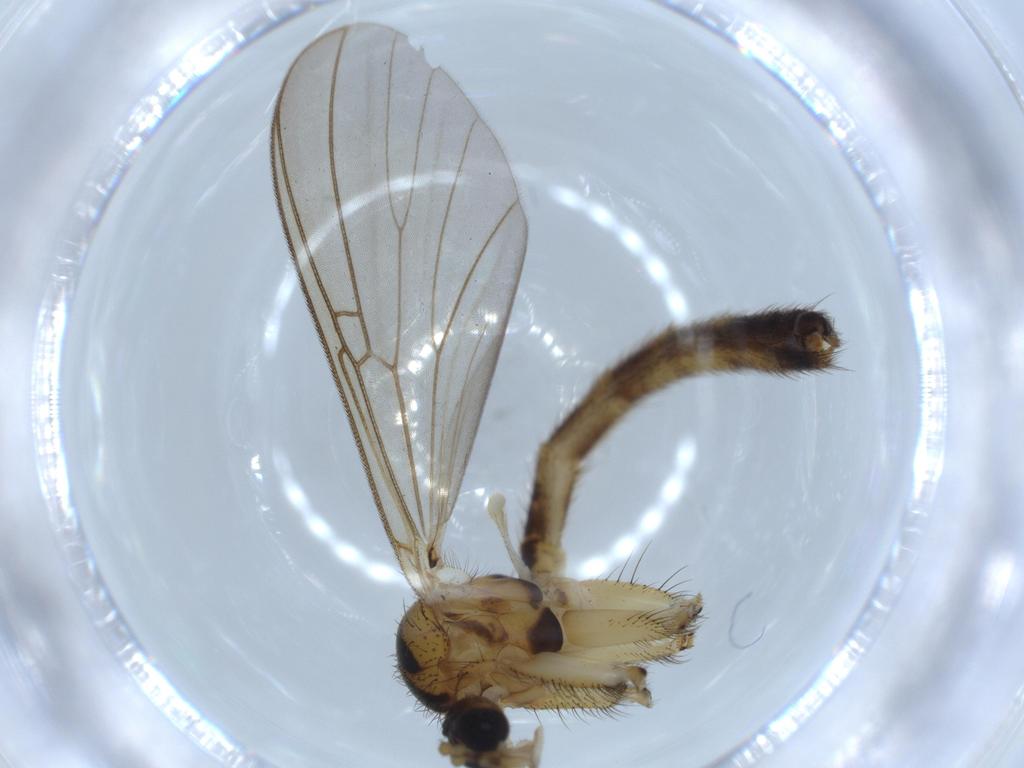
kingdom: Animalia
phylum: Arthropoda
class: Insecta
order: Diptera
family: Mycetophilidae
